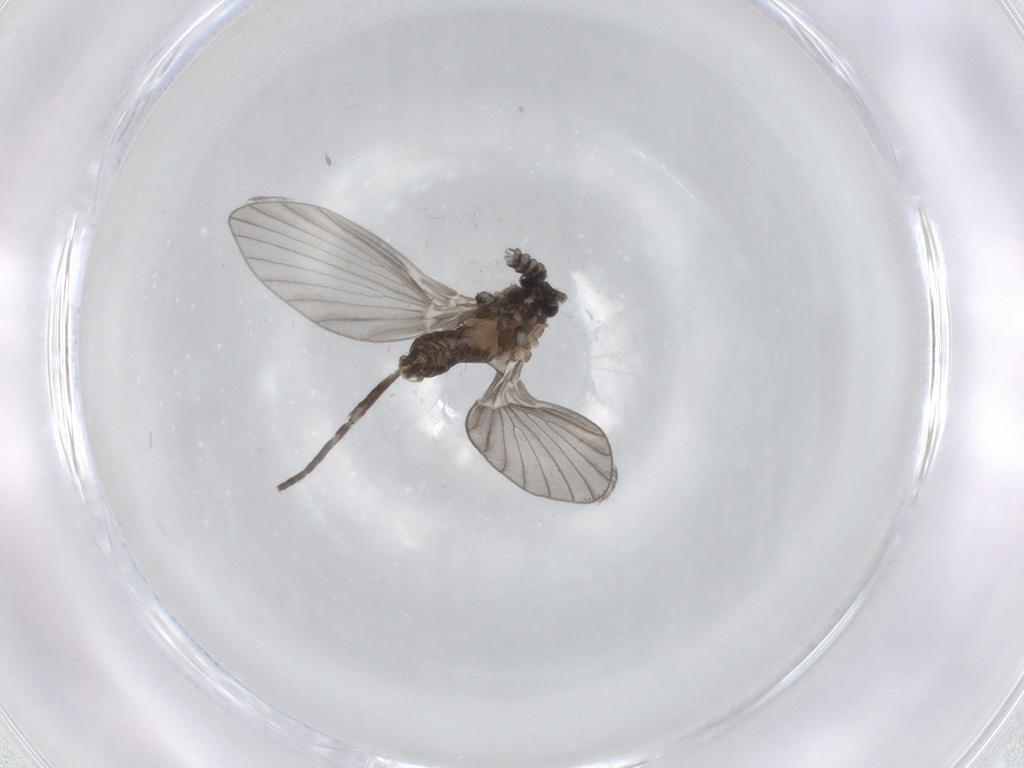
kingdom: Animalia
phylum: Arthropoda
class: Insecta
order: Diptera
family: Psychodidae
